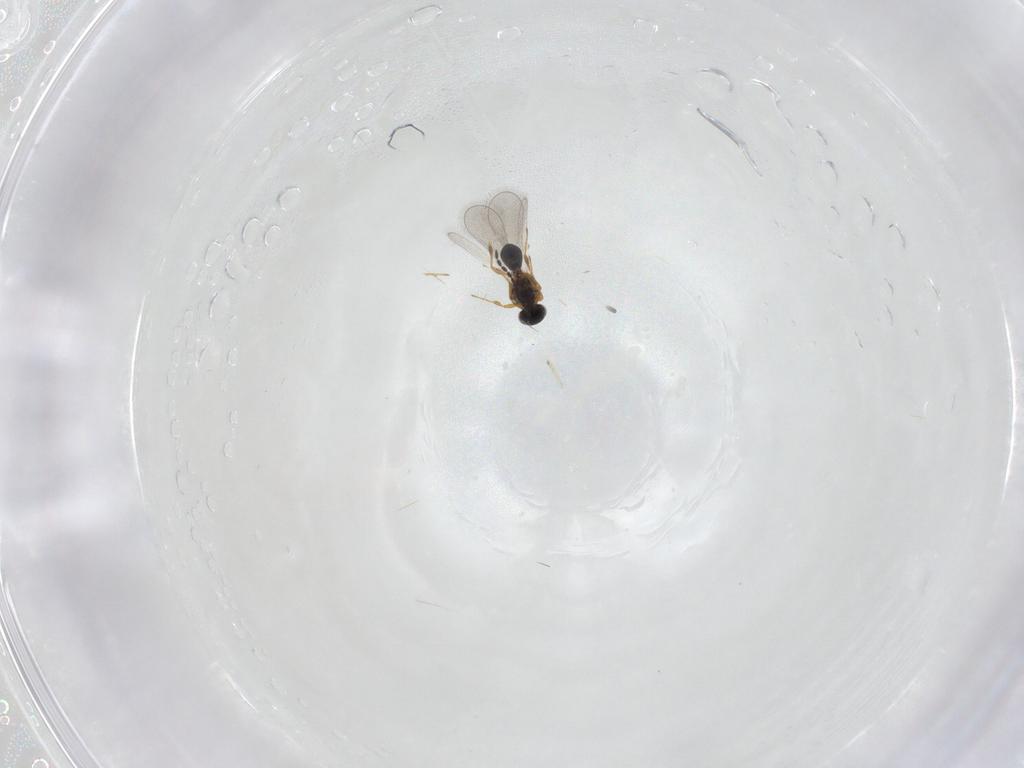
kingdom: Animalia
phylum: Arthropoda
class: Insecta
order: Hymenoptera
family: Platygastridae
